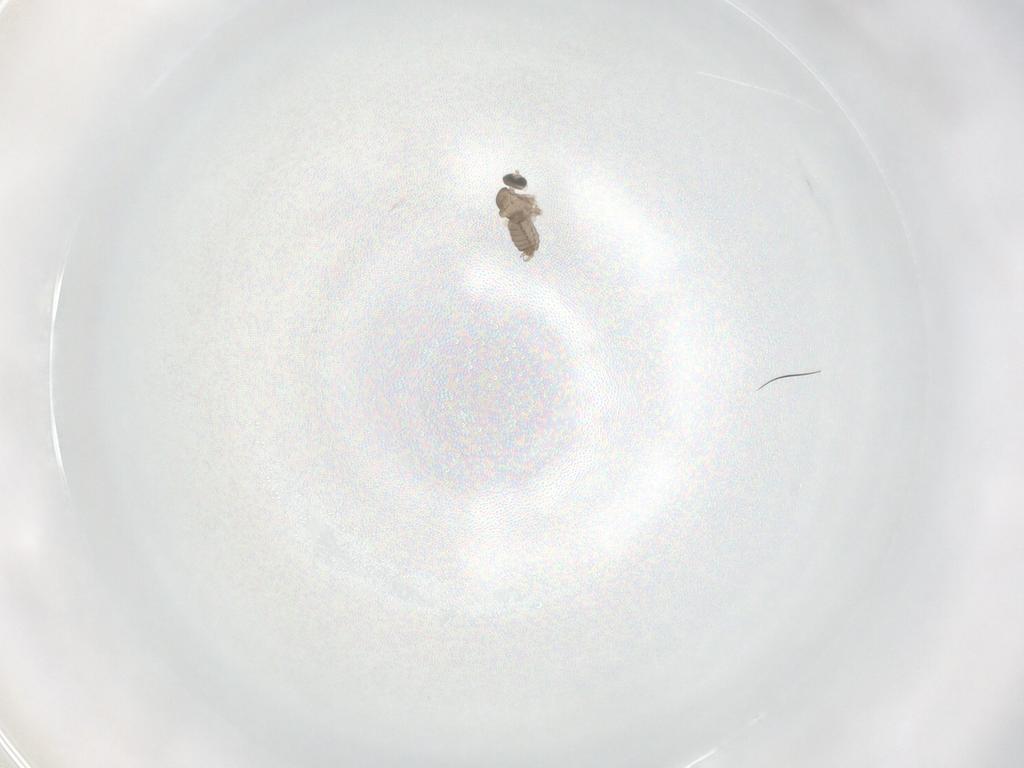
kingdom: Animalia
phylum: Arthropoda
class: Insecta
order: Diptera
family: Cecidomyiidae
